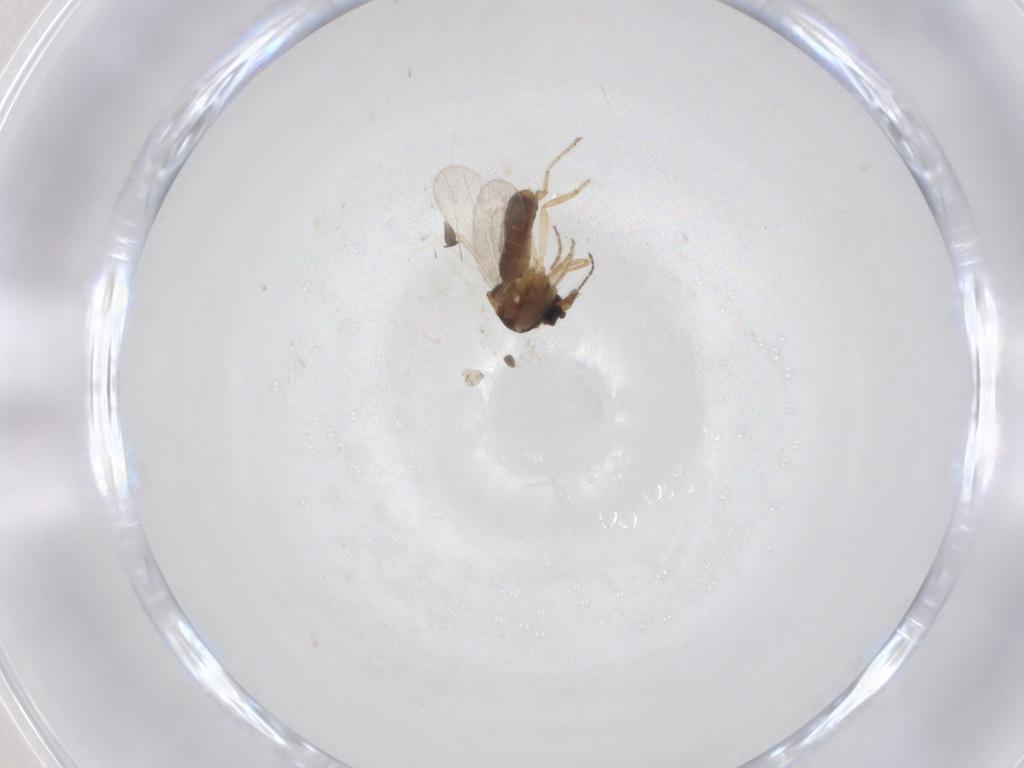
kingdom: Animalia
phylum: Arthropoda
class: Insecta
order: Diptera
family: Ceratopogonidae
